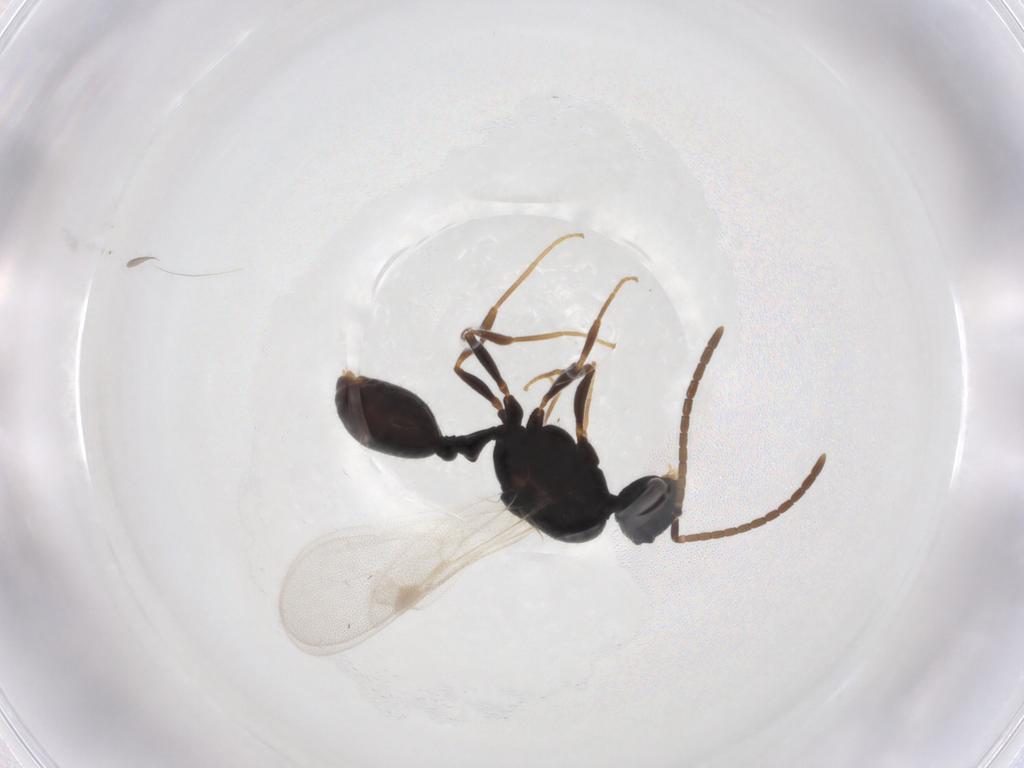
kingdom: Animalia
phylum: Arthropoda
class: Insecta
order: Hymenoptera
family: Formicidae
